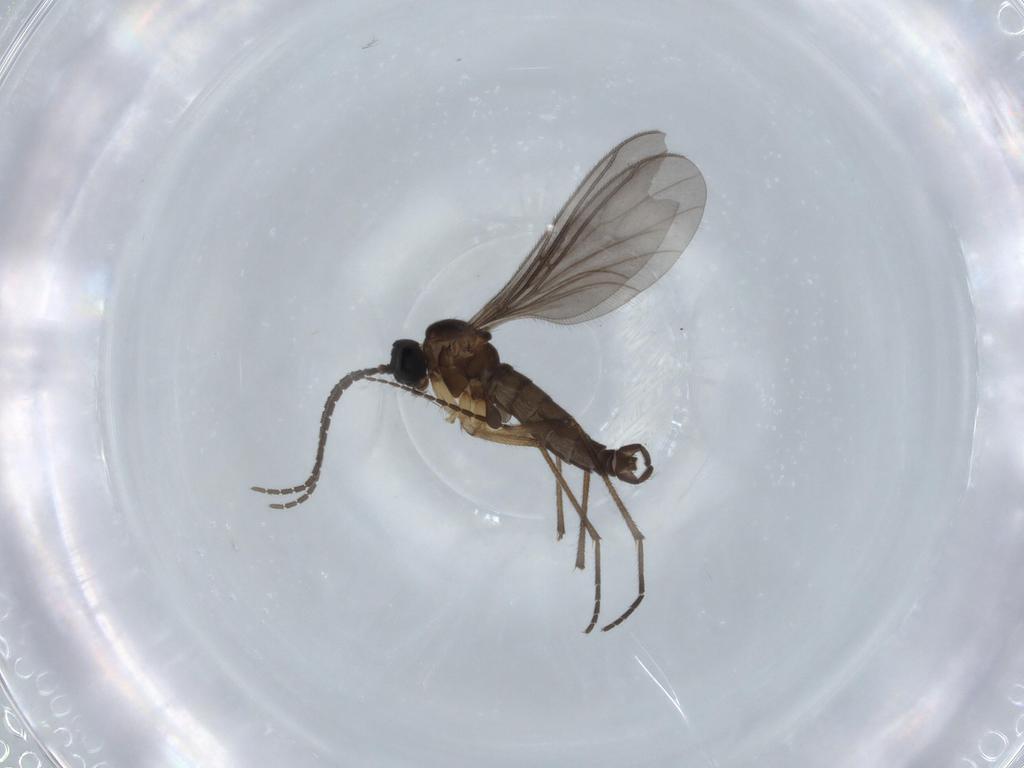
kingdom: Animalia
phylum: Arthropoda
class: Insecta
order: Diptera
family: Limoniidae
